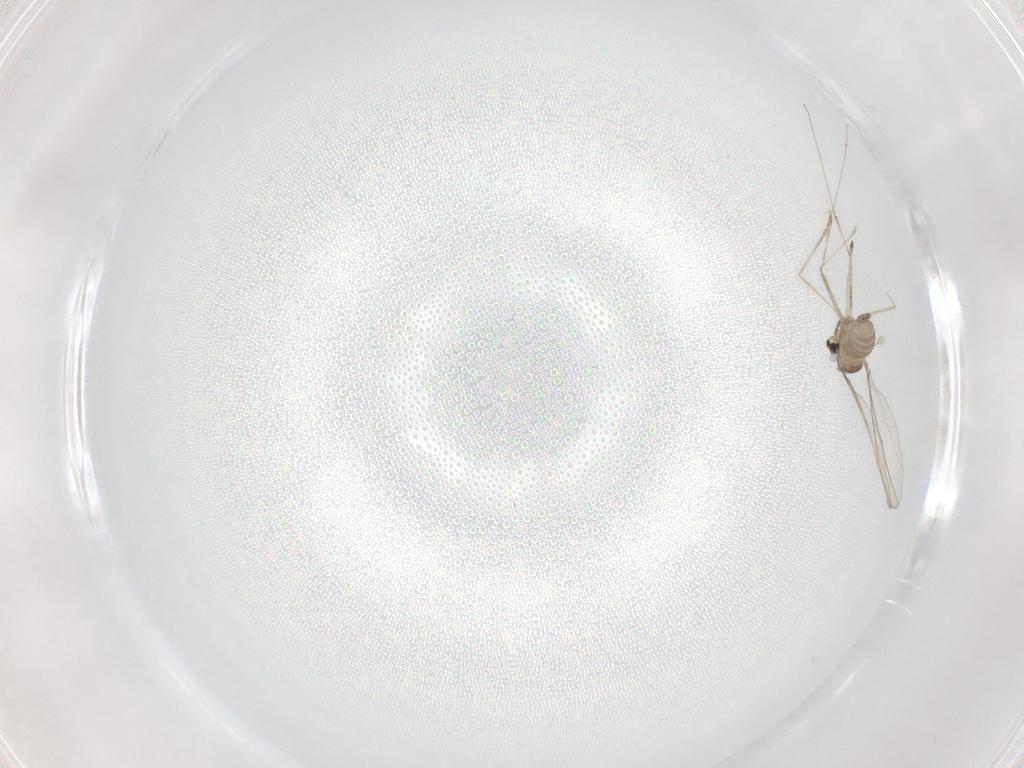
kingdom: Animalia
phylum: Arthropoda
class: Insecta
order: Diptera
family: Cecidomyiidae
